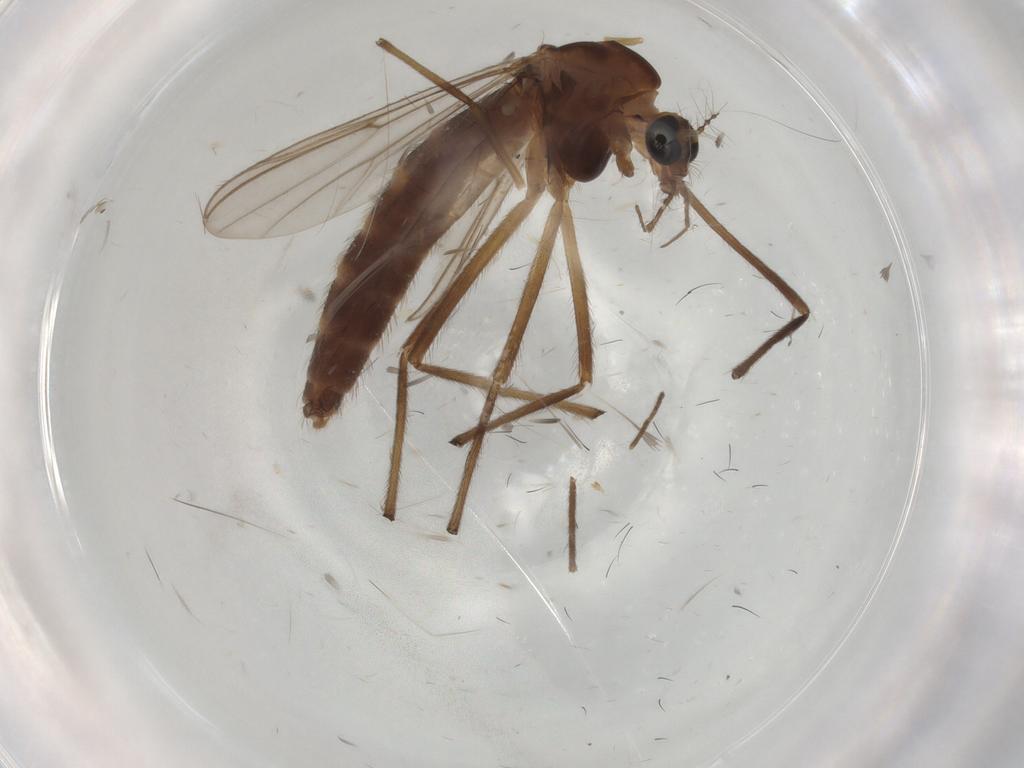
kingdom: Animalia
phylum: Arthropoda
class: Insecta
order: Diptera
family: Chironomidae
